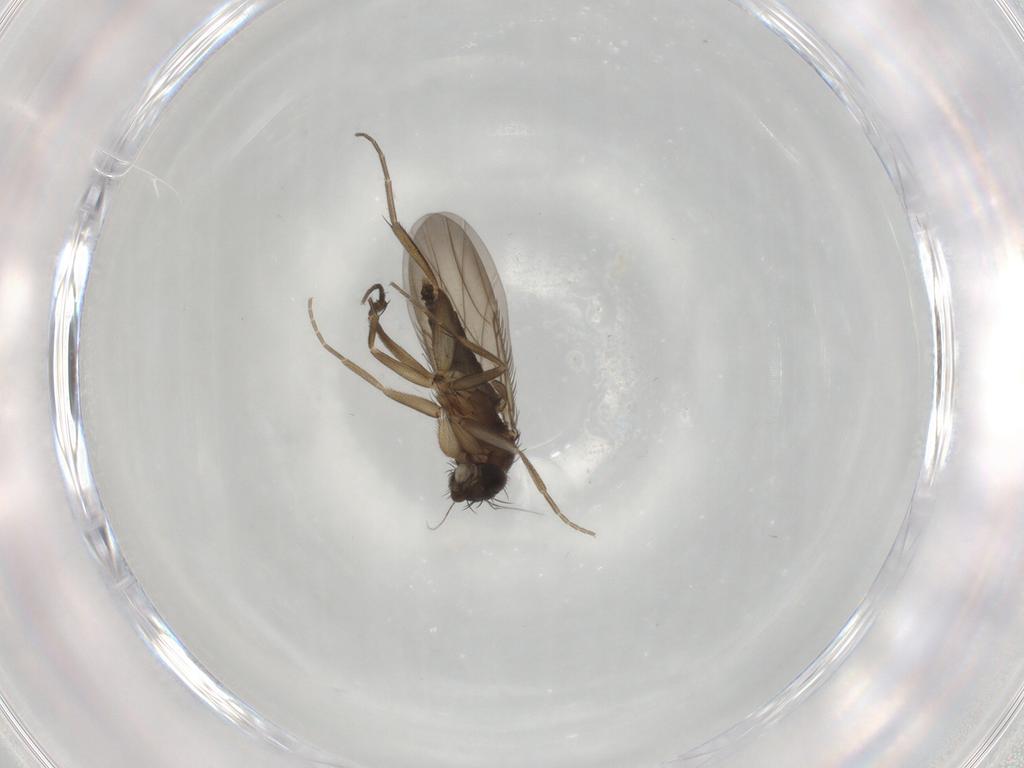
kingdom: Animalia
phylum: Arthropoda
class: Insecta
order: Diptera
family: Phoridae
